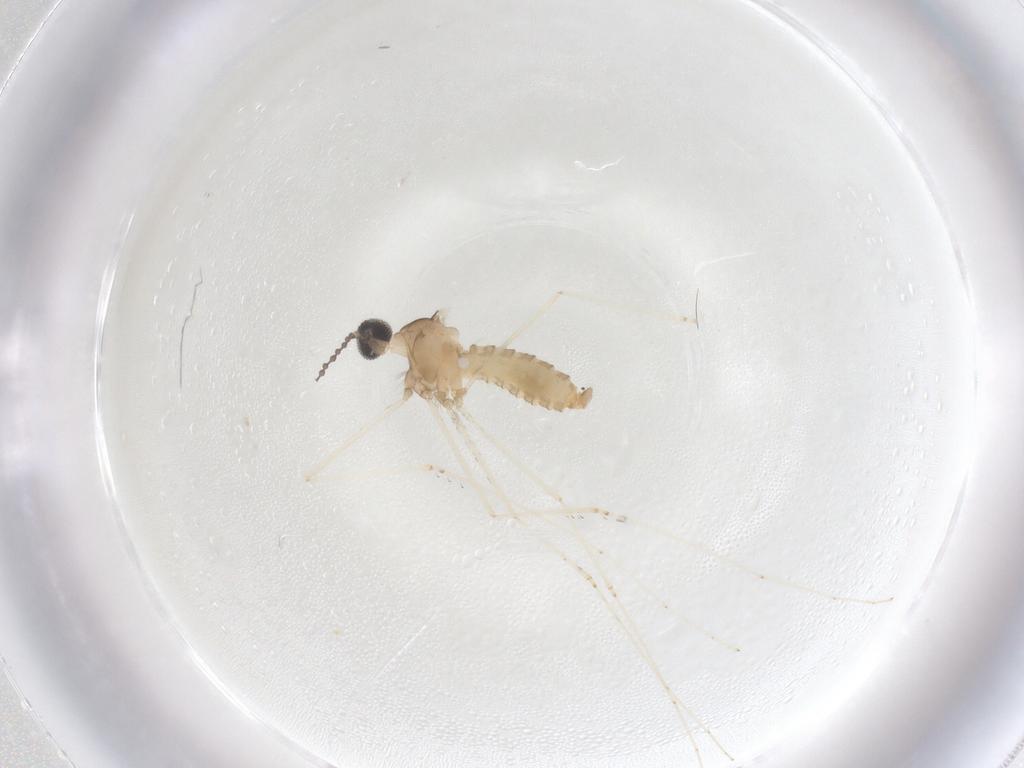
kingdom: Animalia
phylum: Arthropoda
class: Insecta
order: Diptera
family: Cecidomyiidae
